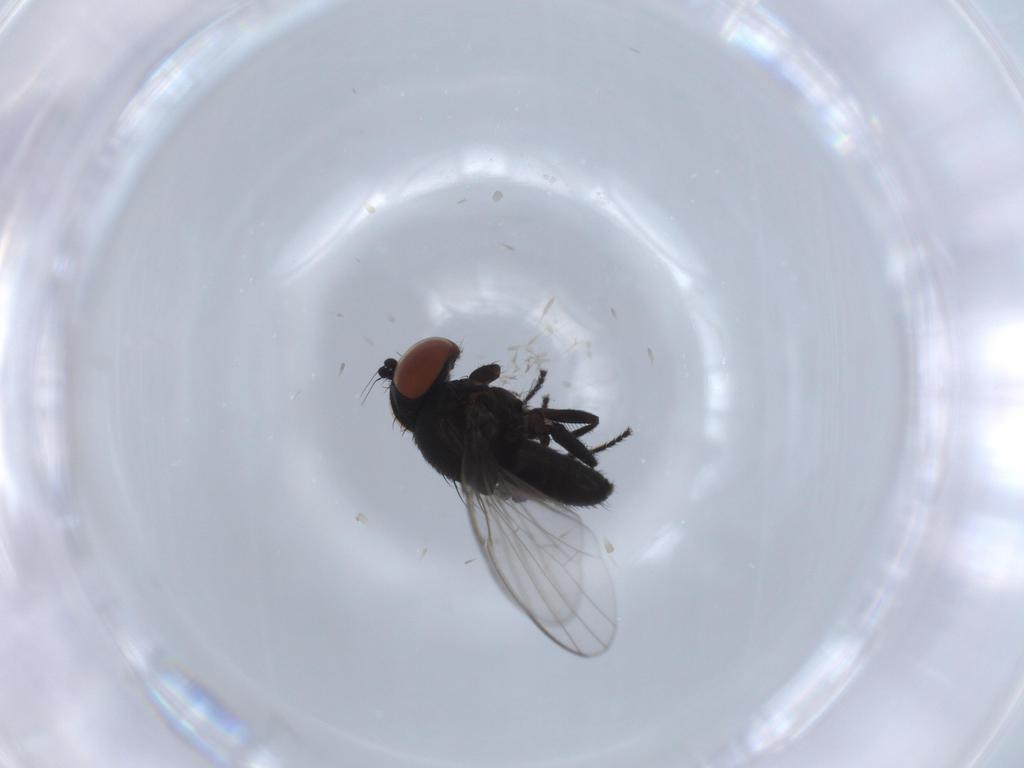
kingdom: Animalia
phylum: Arthropoda
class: Insecta
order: Diptera
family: Milichiidae
